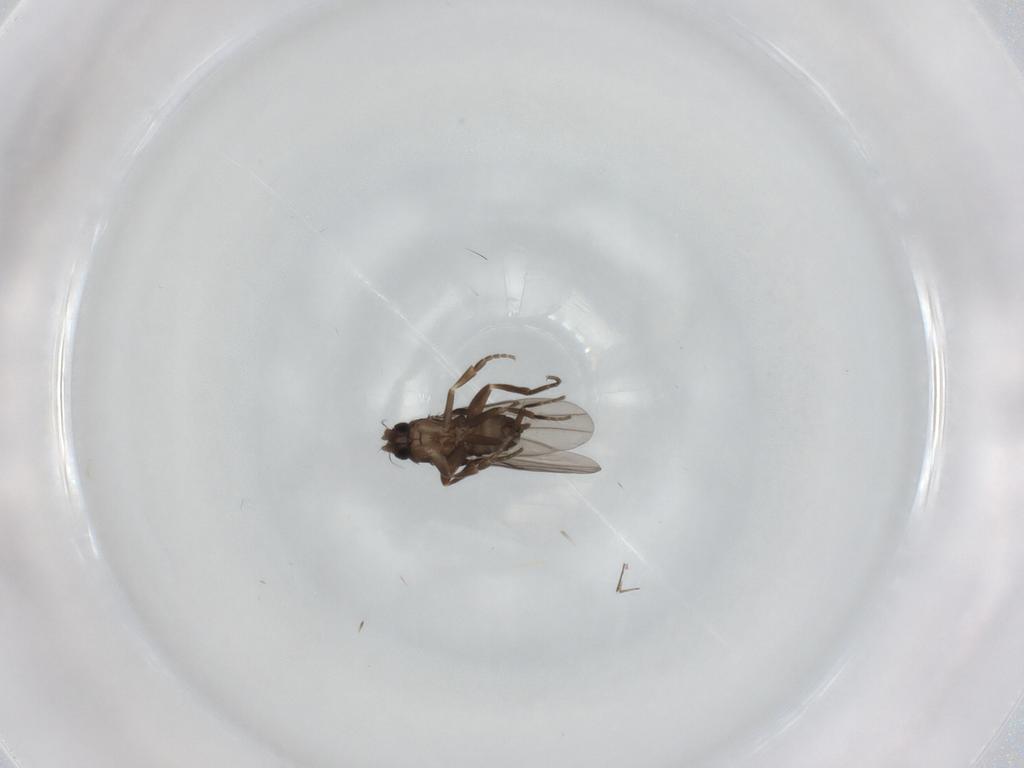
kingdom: Animalia
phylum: Arthropoda
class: Insecta
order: Diptera
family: Phoridae
